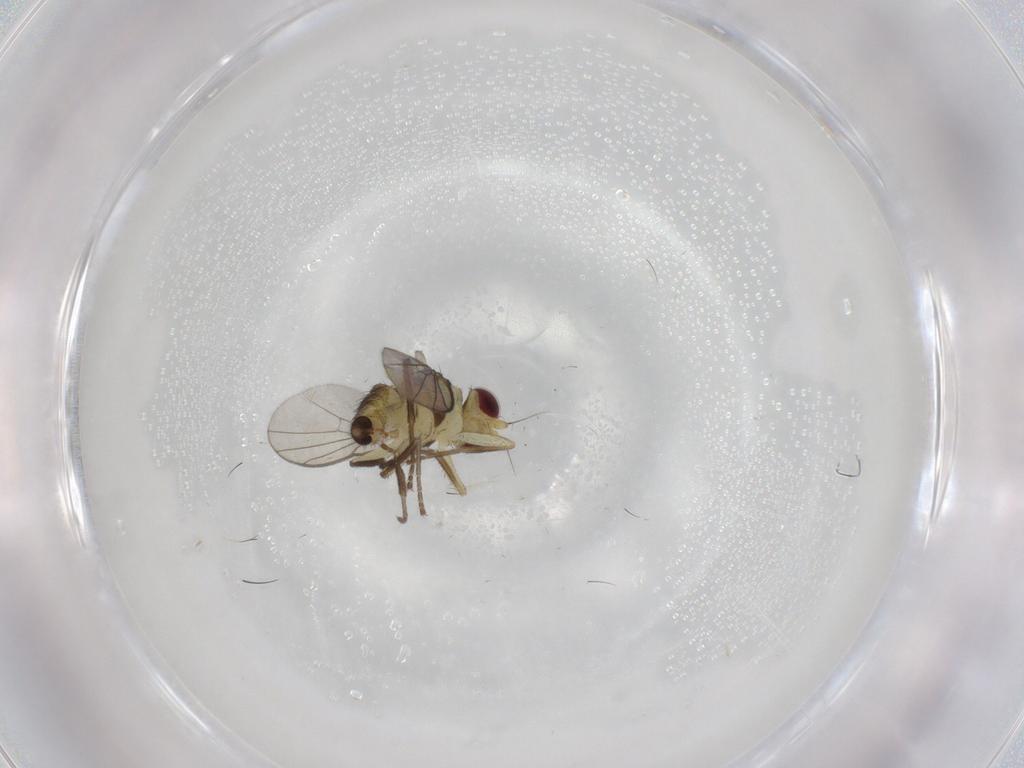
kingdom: Animalia
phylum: Arthropoda
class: Insecta
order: Diptera
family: Agromyzidae
